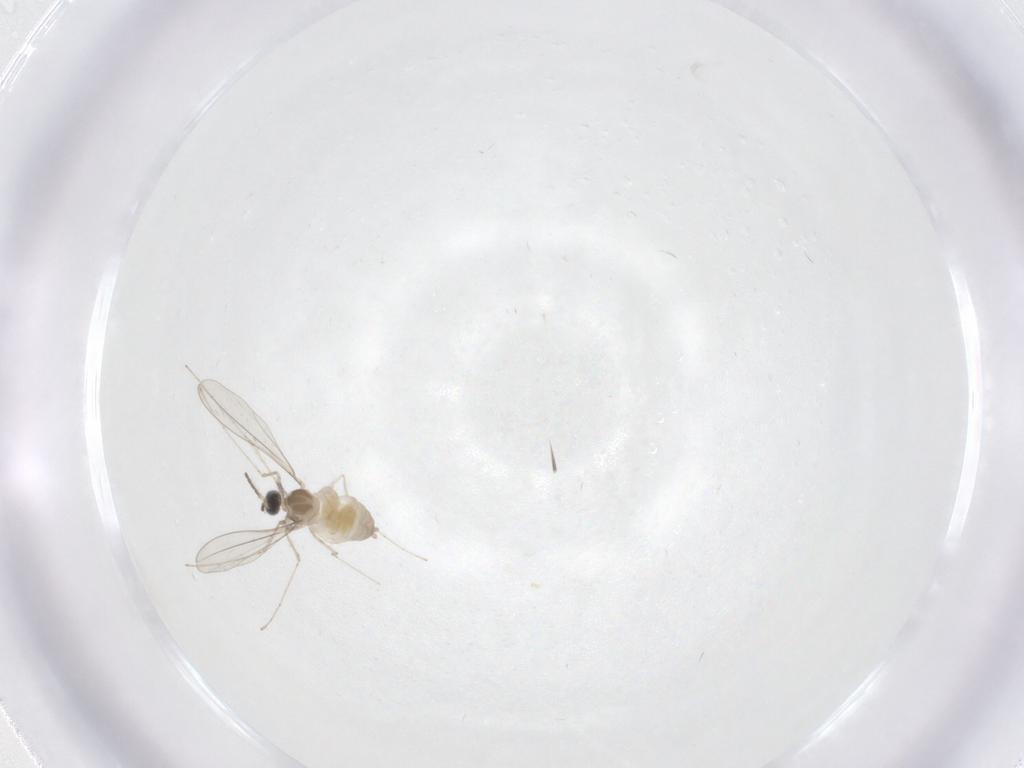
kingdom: Animalia
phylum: Arthropoda
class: Insecta
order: Diptera
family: Cecidomyiidae
